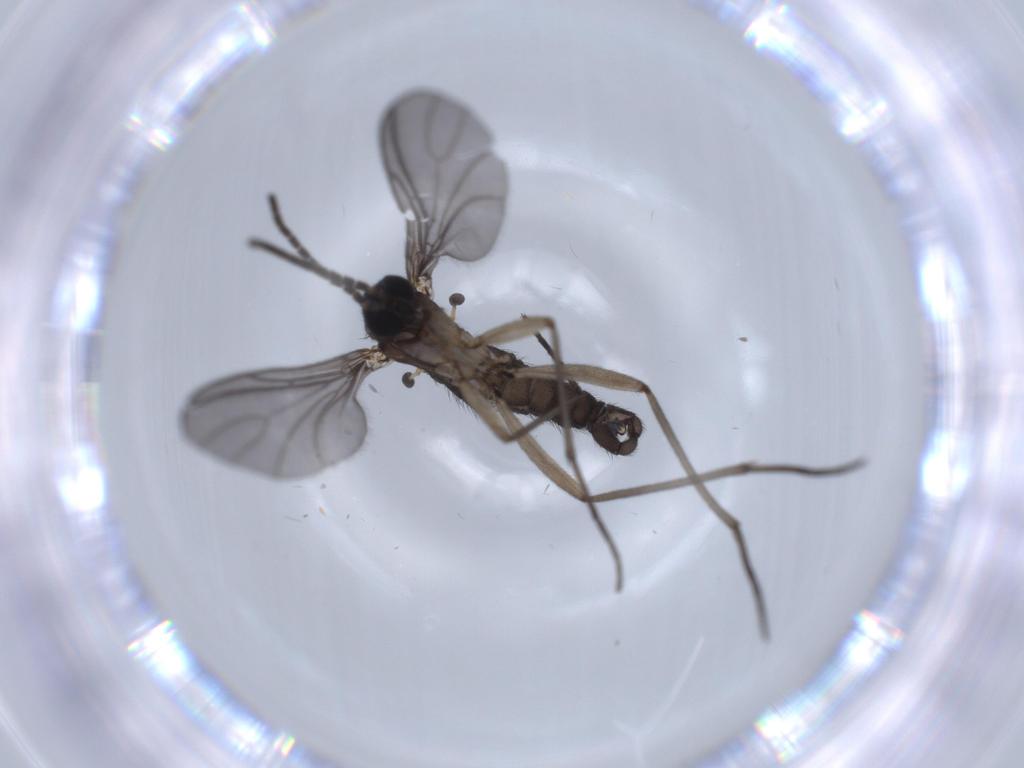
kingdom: Animalia
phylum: Arthropoda
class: Insecta
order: Diptera
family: Sciaridae
